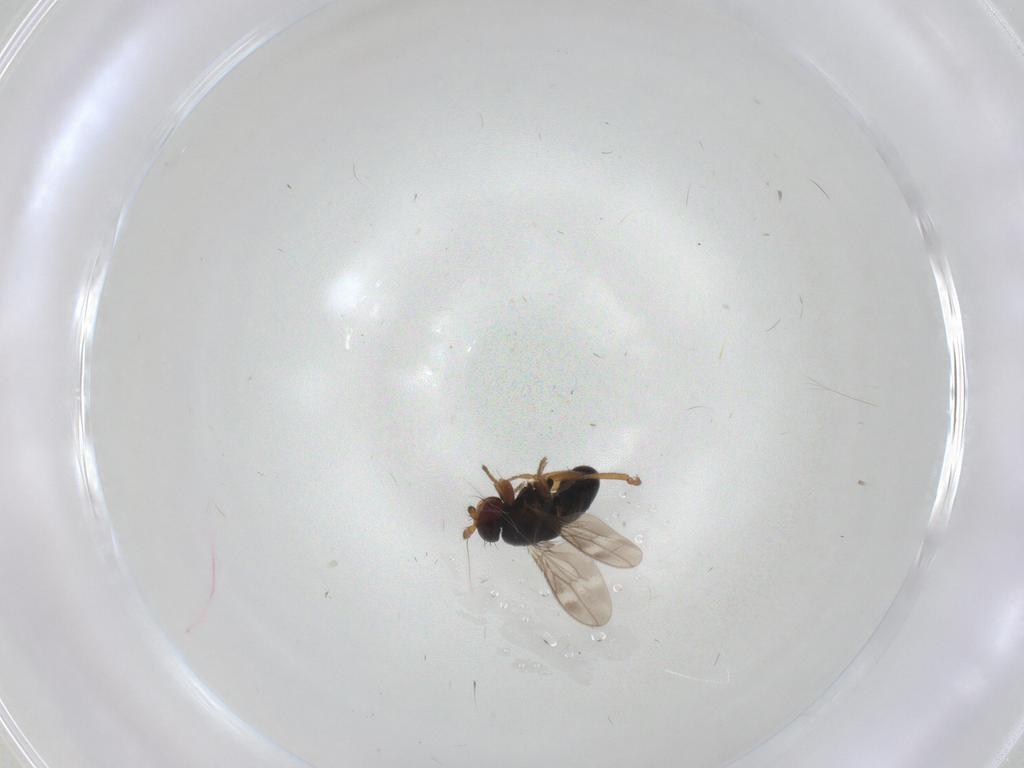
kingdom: Animalia
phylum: Arthropoda
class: Insecta
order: Diptera
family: Sphaeroceridae
